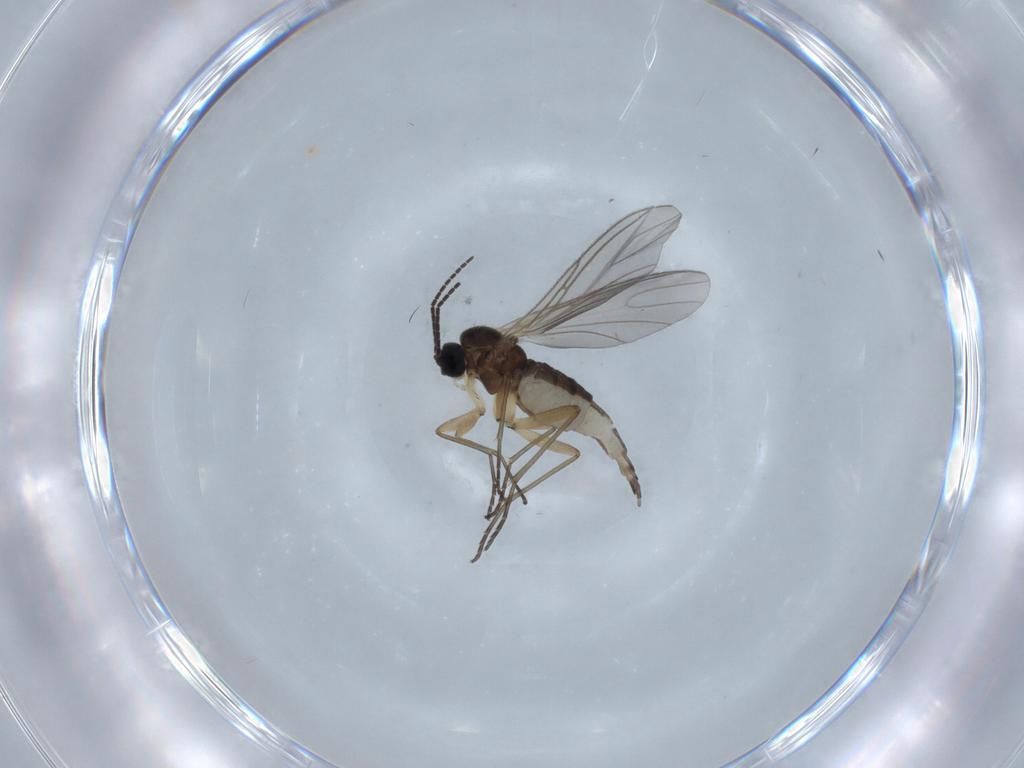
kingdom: Animalia
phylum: Arthropoda
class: Insecta
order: Diptera
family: Sciaridae
